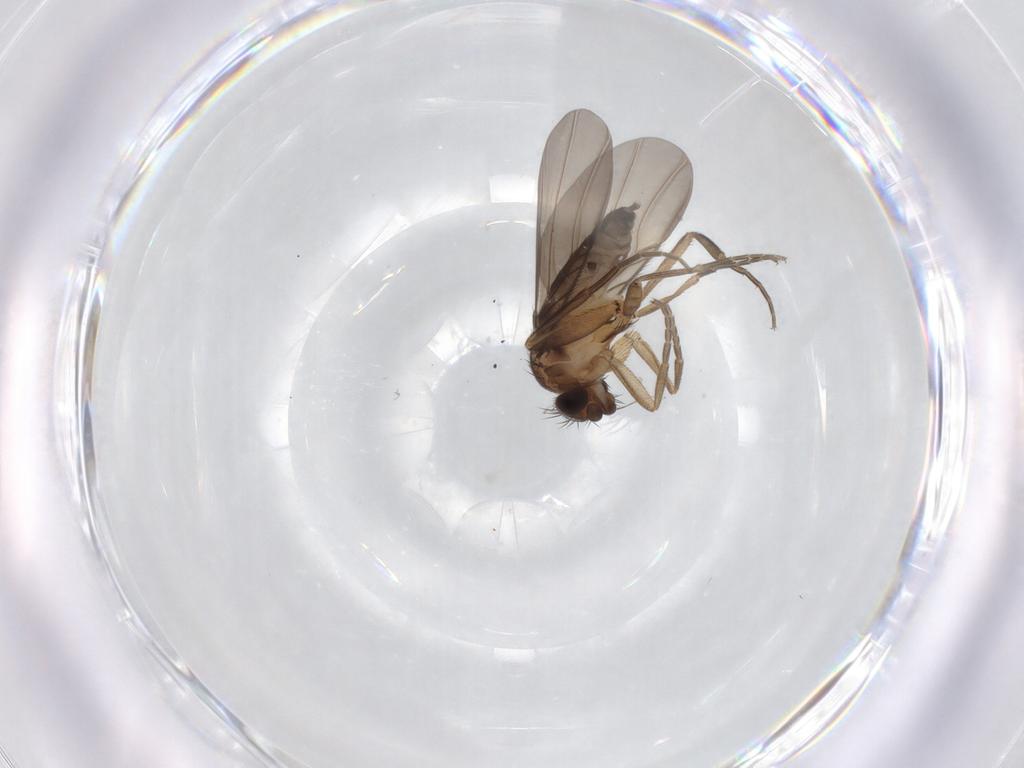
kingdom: Animalia
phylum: Arthropoda
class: Insecta
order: Diptera
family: Phoridae
